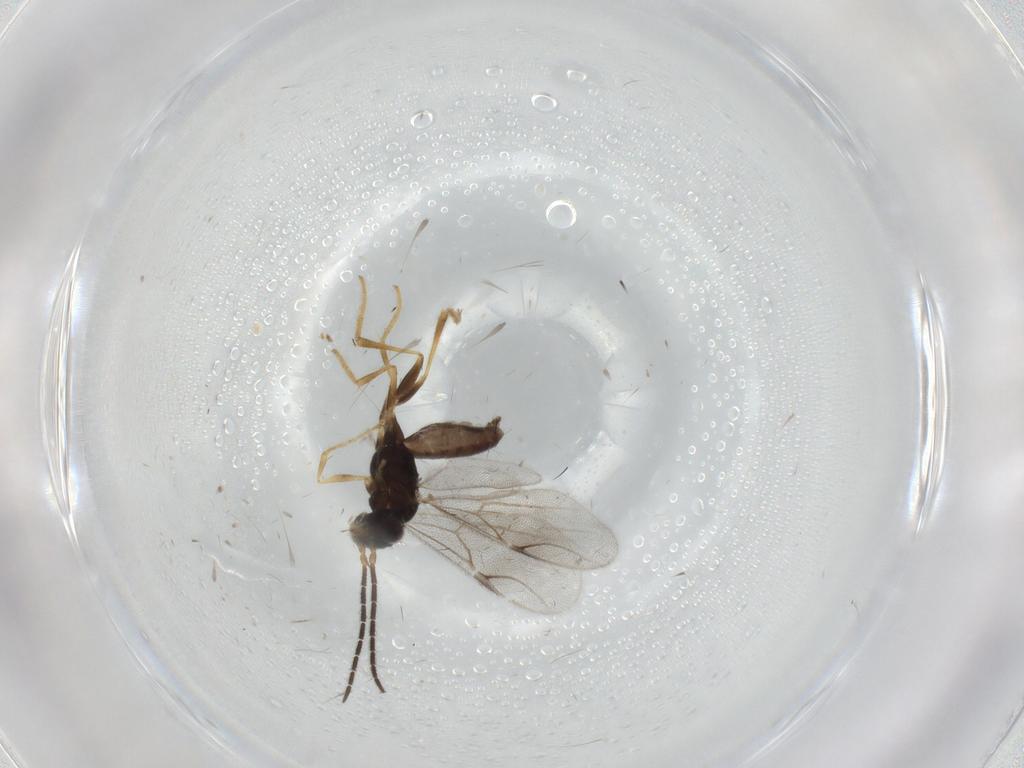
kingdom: Animalia
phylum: Arthropoda
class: Insecta
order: Hymenoptera
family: Dryinidae
